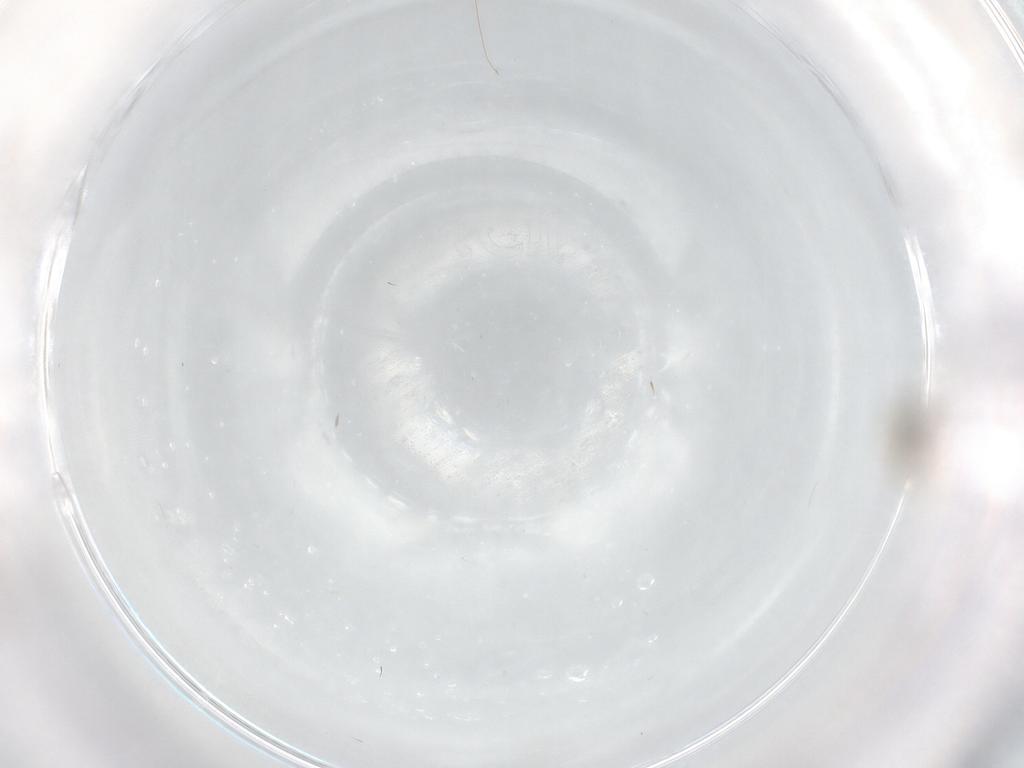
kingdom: Animalia
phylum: Arthropoda
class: Insecta
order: Diptera
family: Cecidomyiidae
